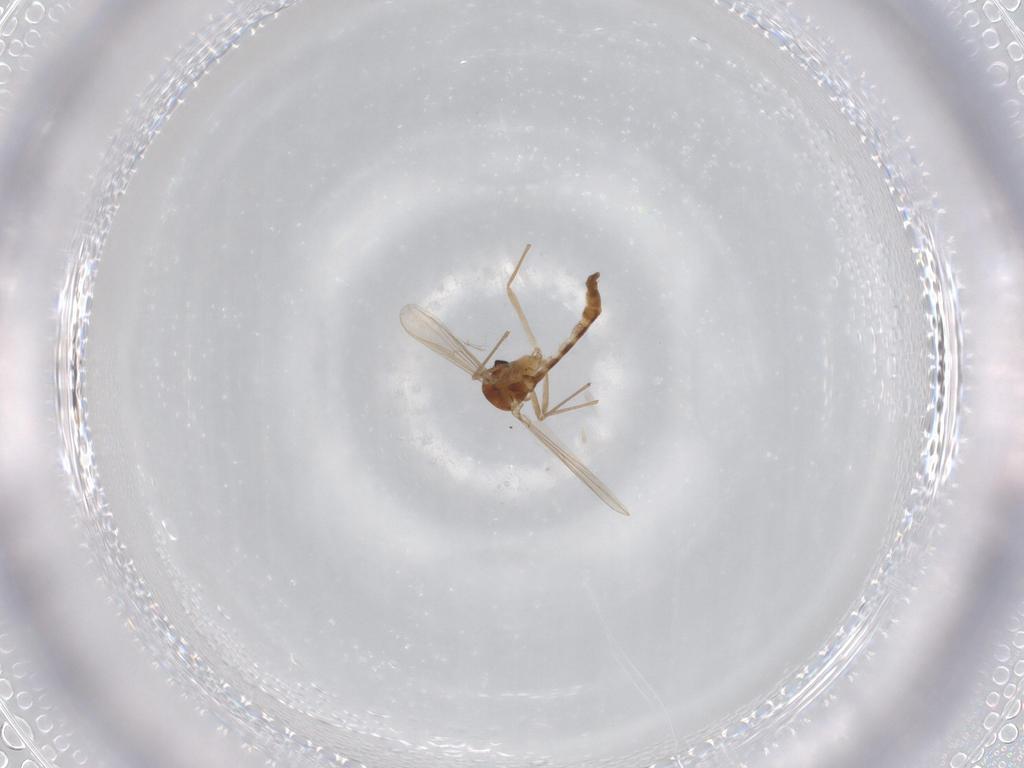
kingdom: Animalia
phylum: Arthropoda
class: Insecta
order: Diptera
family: Chironomidae
